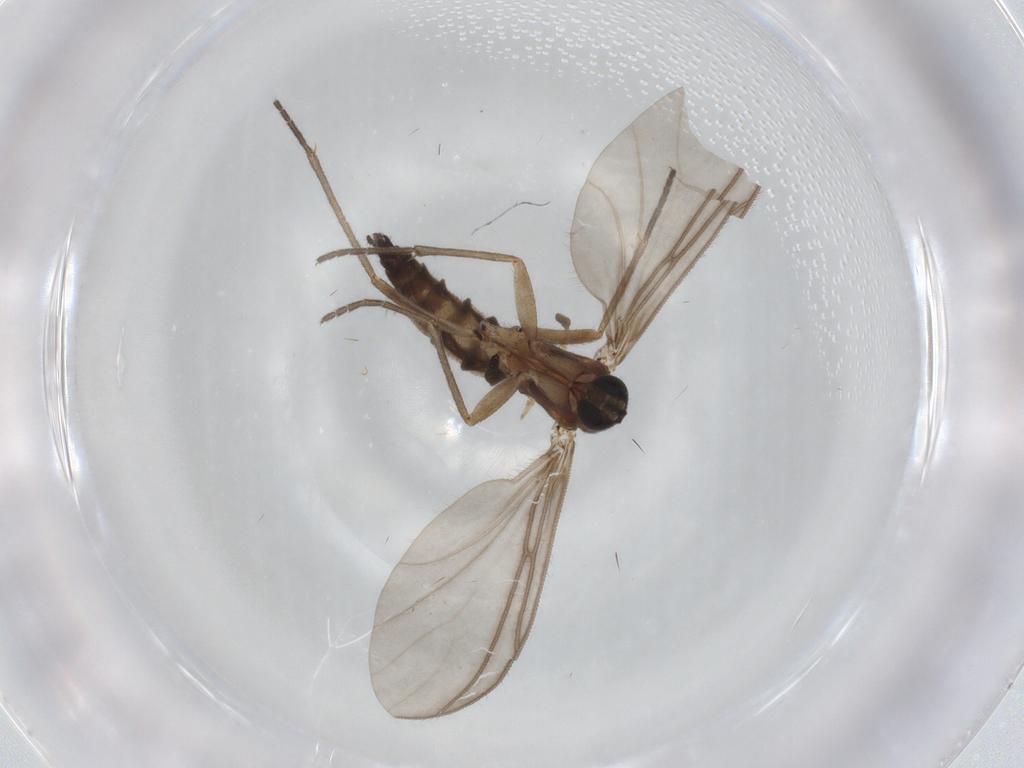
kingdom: Animalia
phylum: Arthropoda
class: Insecta
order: Diptera
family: Sciaridae
